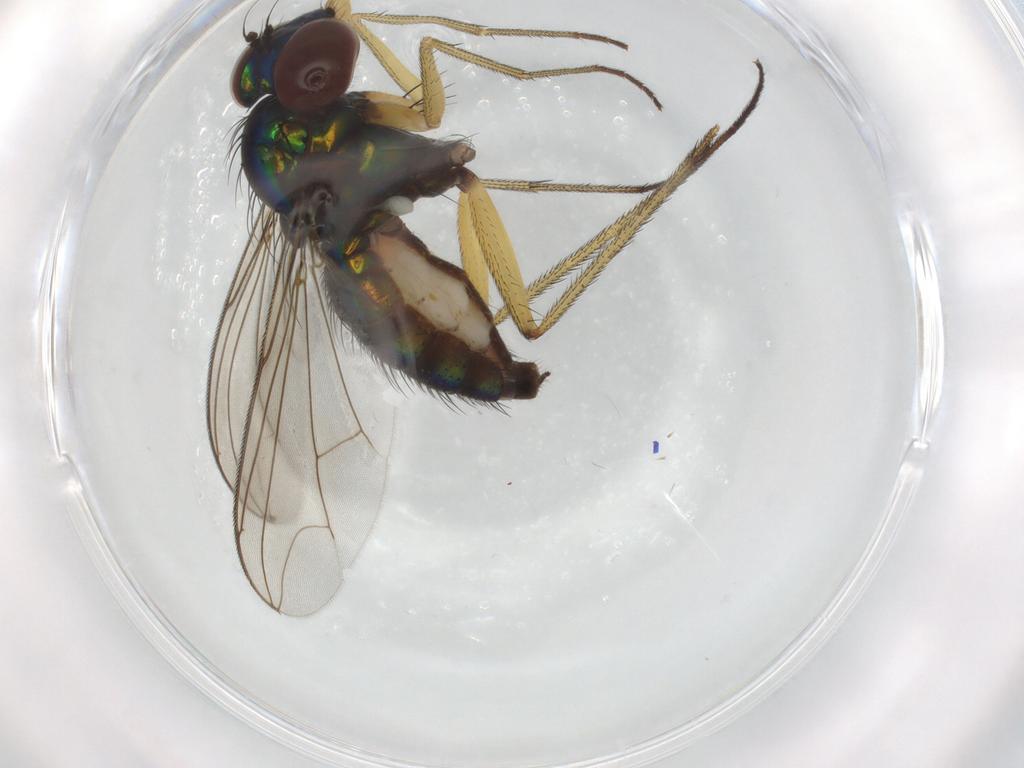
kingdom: Animalia
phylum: Arthropoda
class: Insecta
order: Diptera
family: Dolichopodidae
